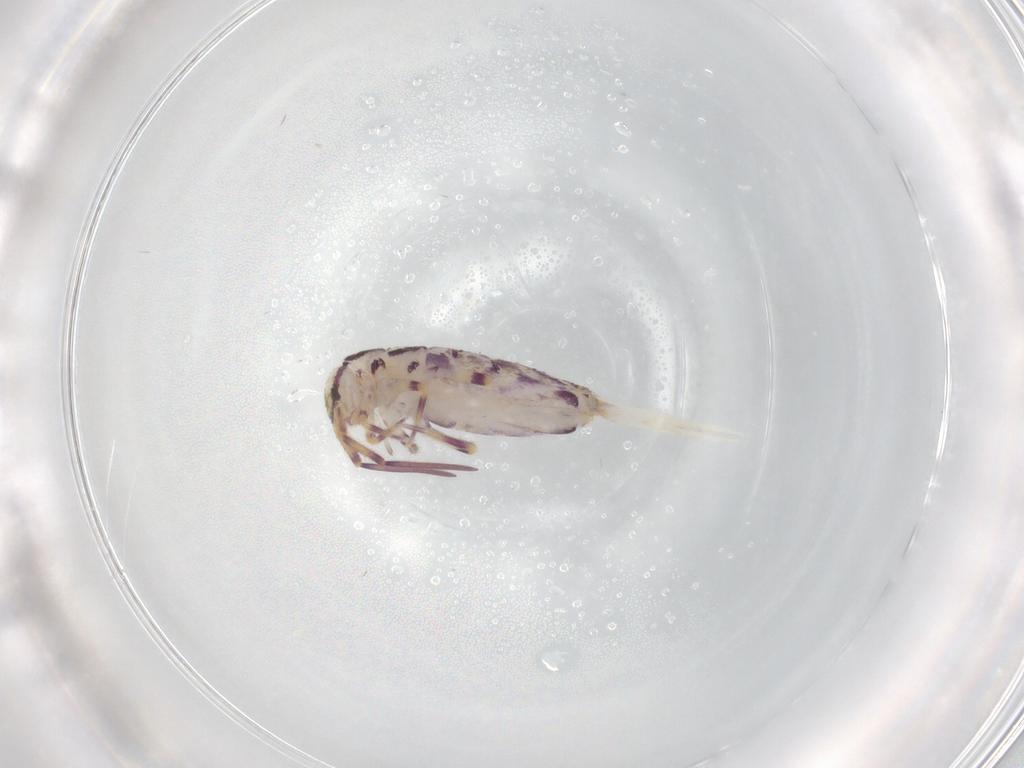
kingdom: Animalia
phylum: Arthropoda
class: Collembola
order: Entomobryomorpha
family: Entomobryidae
